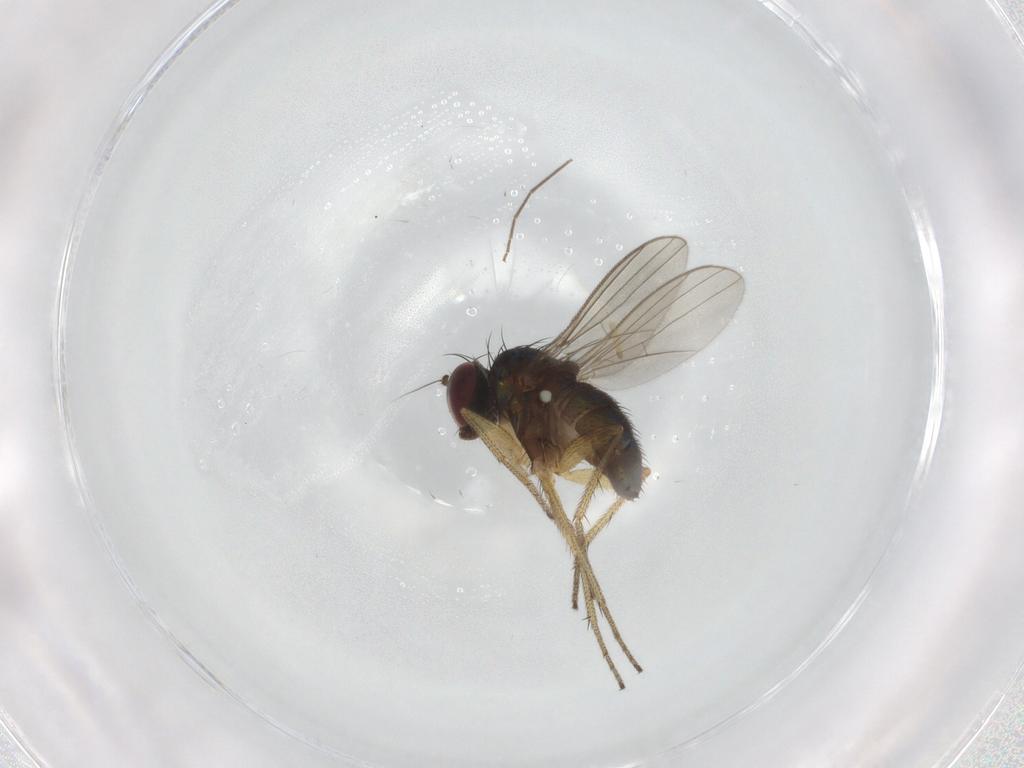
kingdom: Animalia
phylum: Arthropoda
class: Insecta
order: Diptera
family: Dolichopodidae
